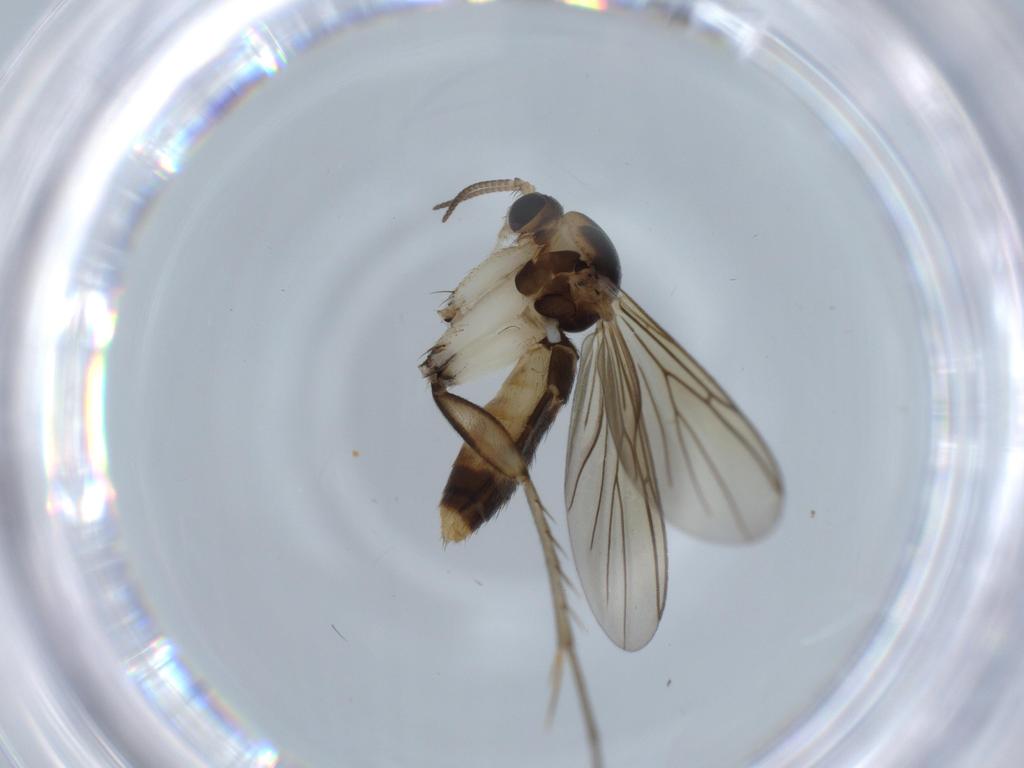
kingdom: Animalia
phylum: Arthropoda
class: Insecta
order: Diptera
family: Mycetophilidae
